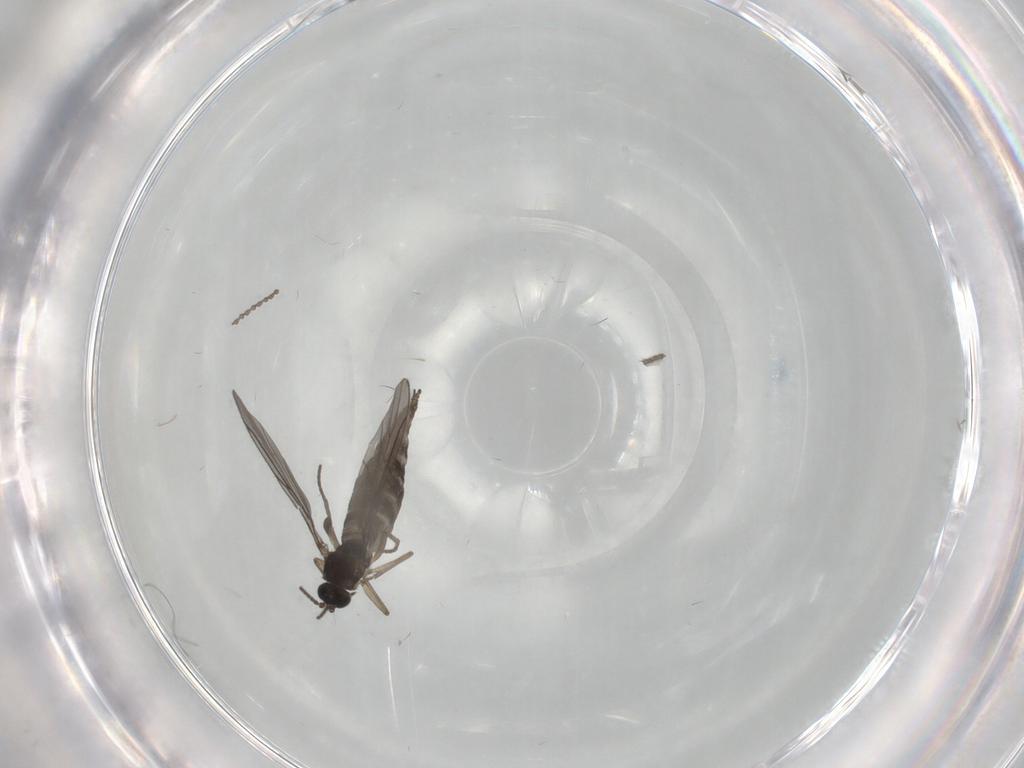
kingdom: Animalia
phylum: Arthropoda
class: Insecta
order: Diptera
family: Sciaridae
